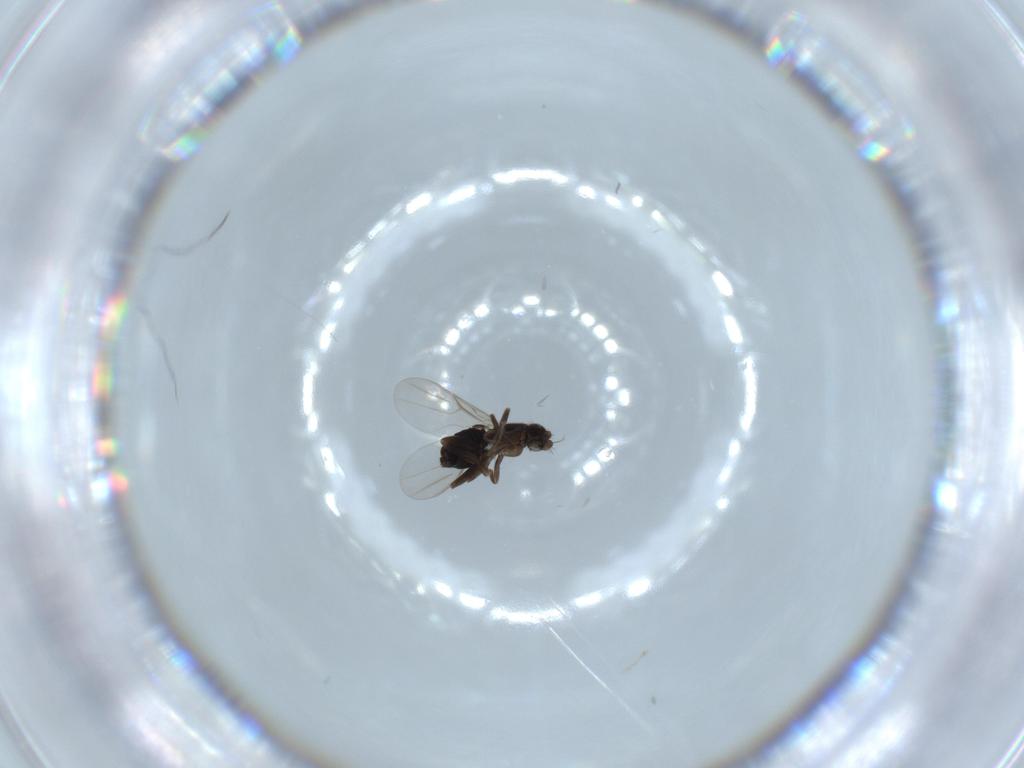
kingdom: Animalia
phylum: Arthropoda
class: Insecta
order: Diptera
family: Phoridae
